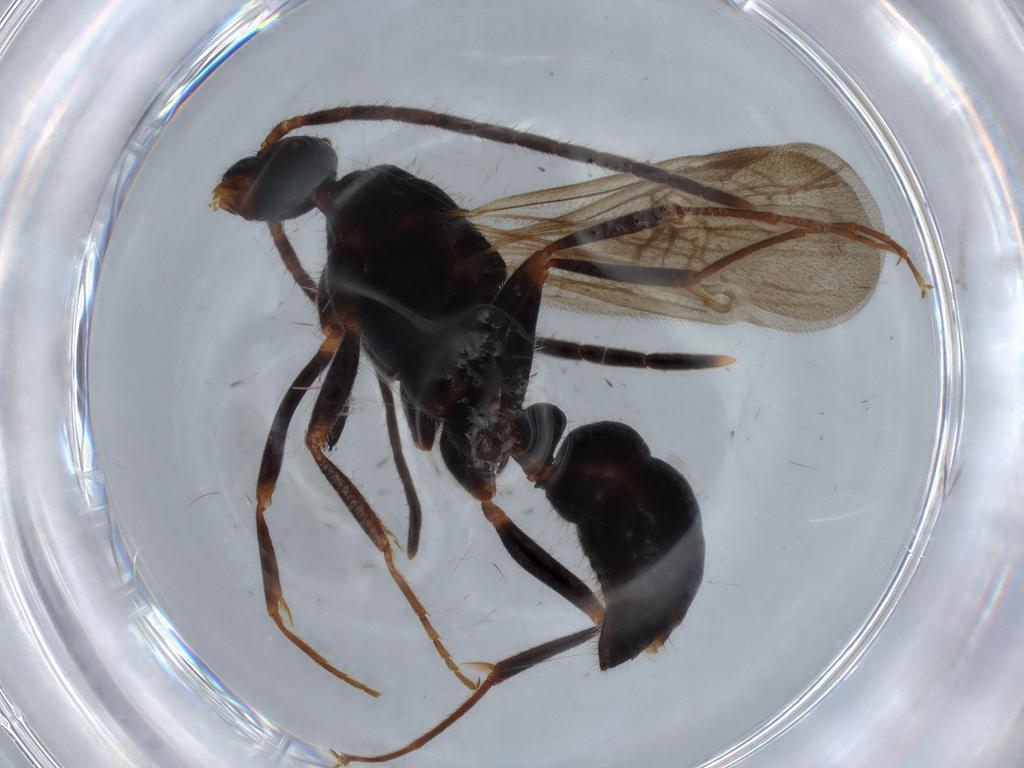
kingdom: Animalia
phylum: Arthropoda
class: Insecta
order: Hymenoptera
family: Formicidae
